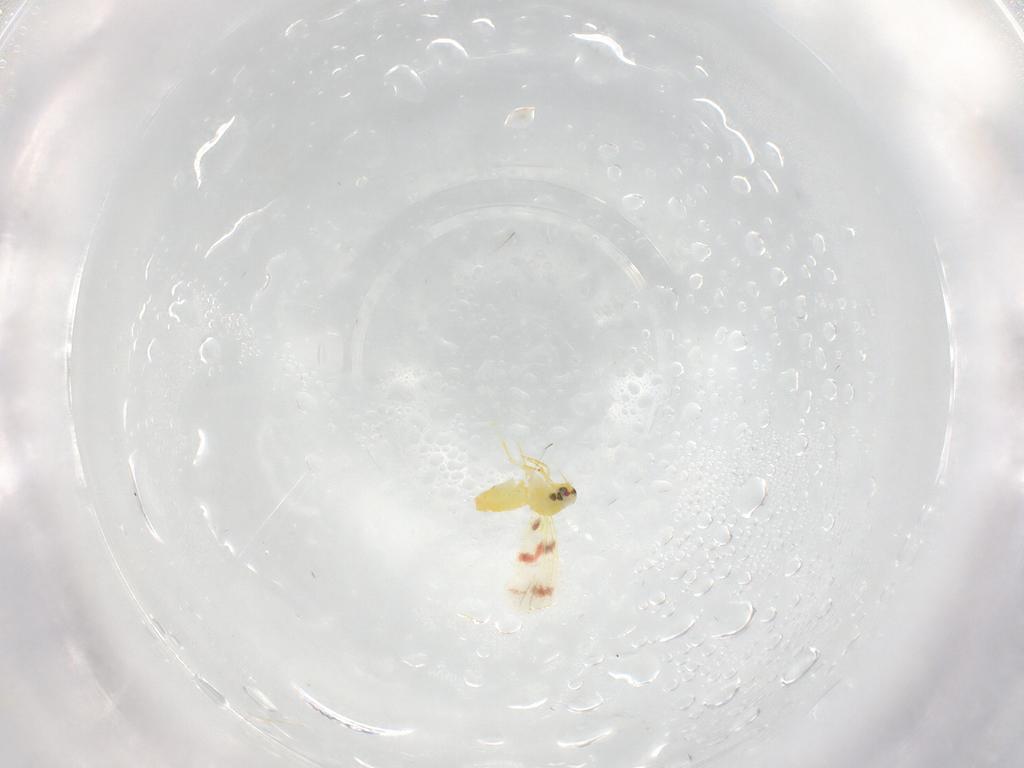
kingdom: Animalia
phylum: Arthropoda
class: Insecta
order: Hemiptera
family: Aleyrodidae
